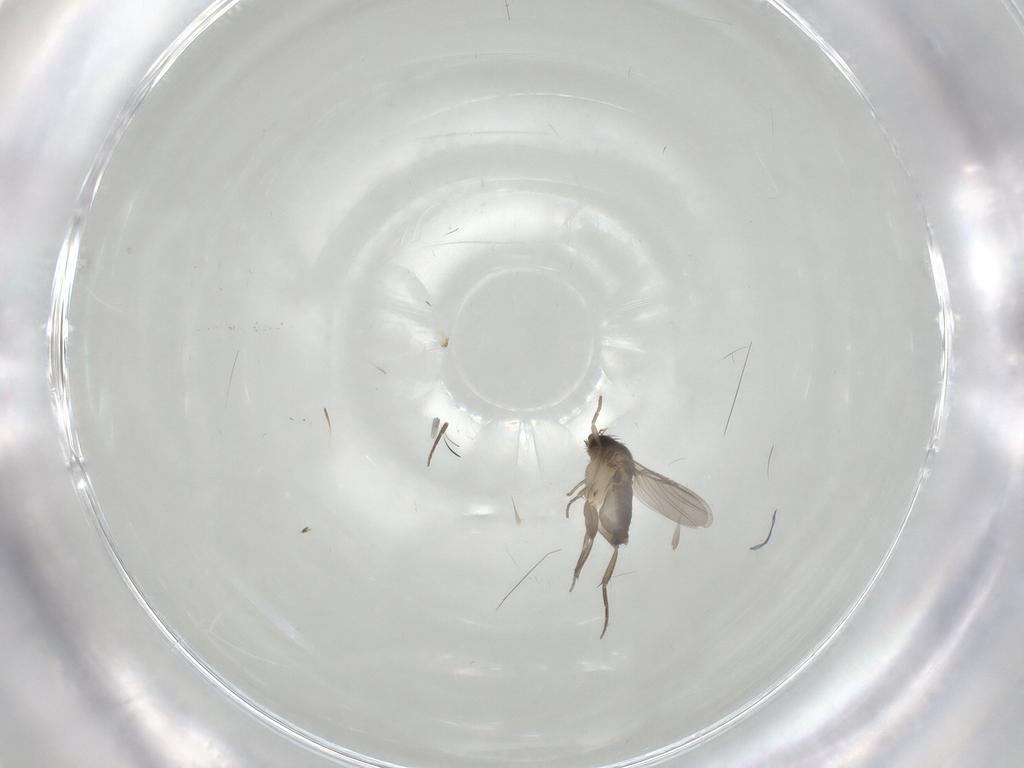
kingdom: Animalia
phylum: Arthropoda
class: Insecta
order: Diptera
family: Phoridae
